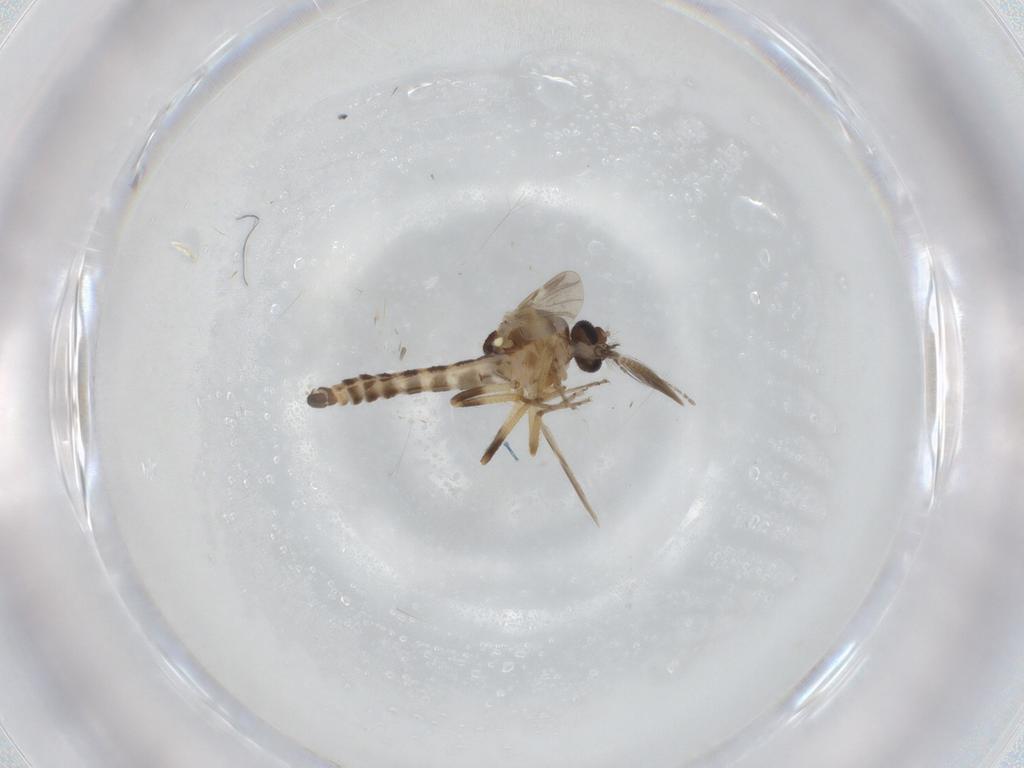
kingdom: Animalia
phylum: Arthropoda
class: Insecta
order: Diptera
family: Ceratopogonidae
